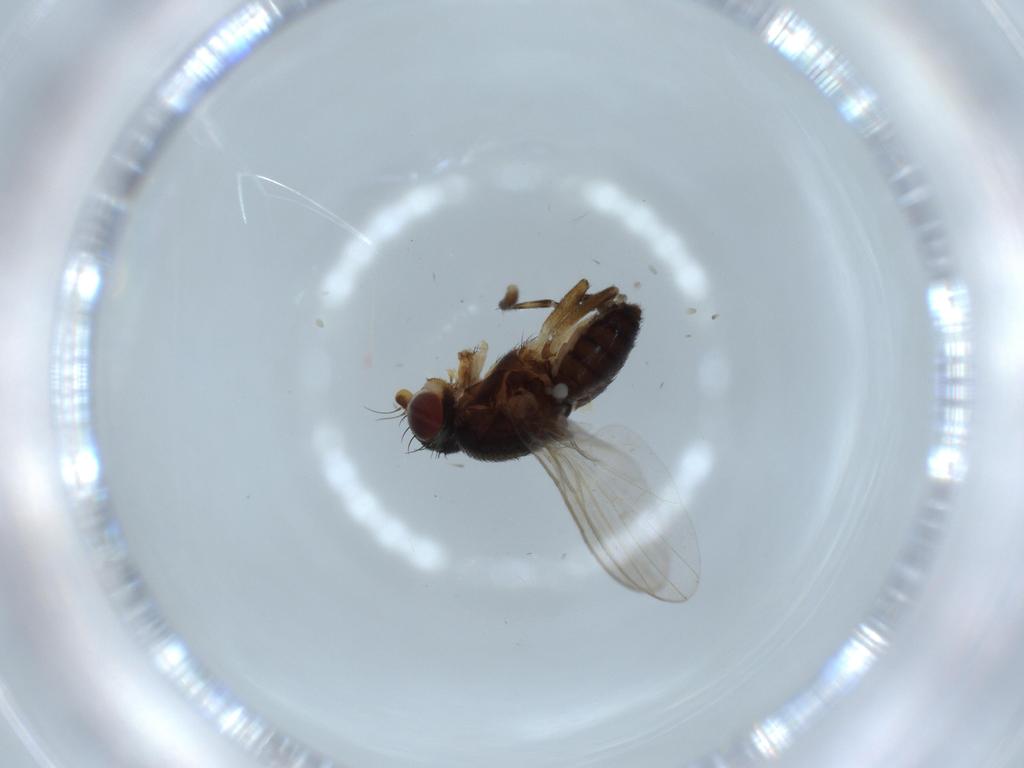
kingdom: Animalia
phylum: Arthropoda
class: Insecta
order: Diptera
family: Heleomyzidae
